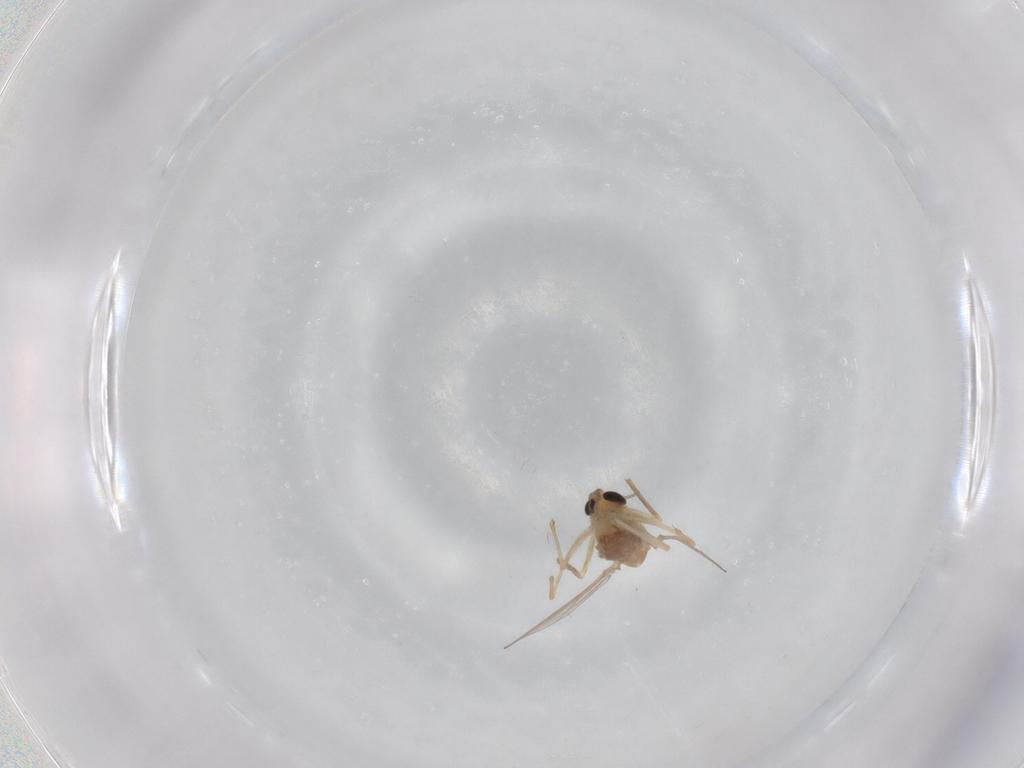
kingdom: Animalia
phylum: Arthropoda
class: Insecta
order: Diptera
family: Chironomidae
